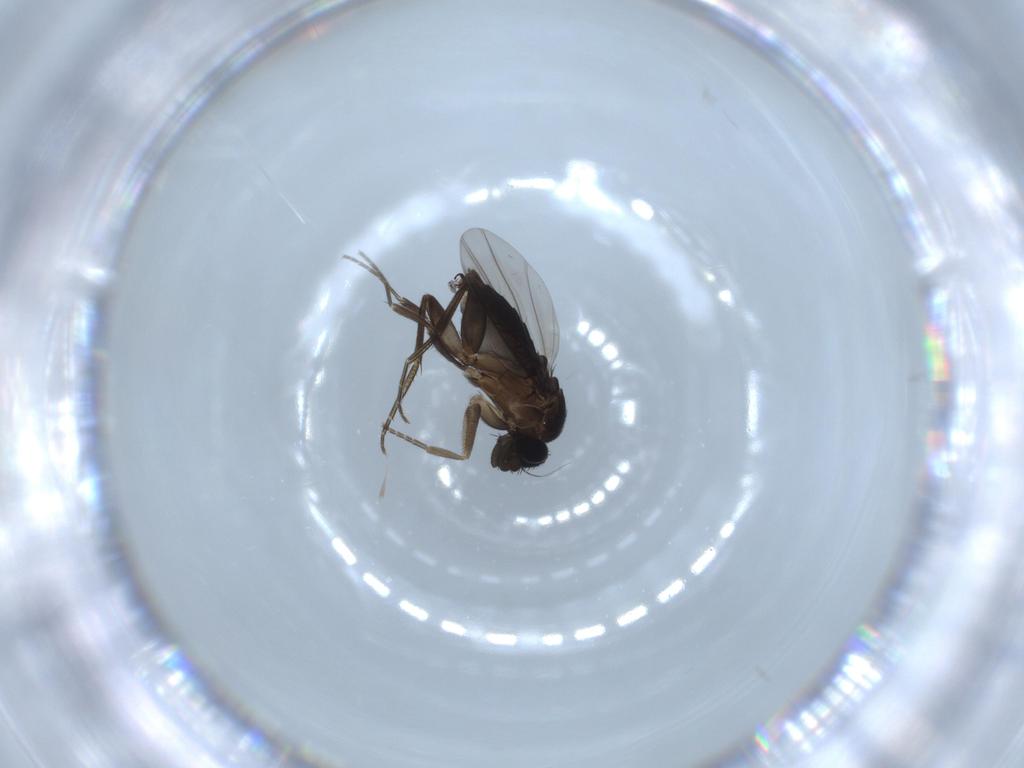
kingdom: Animalia
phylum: Arthropoda
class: Insecta
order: Diptera
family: Phoridae
